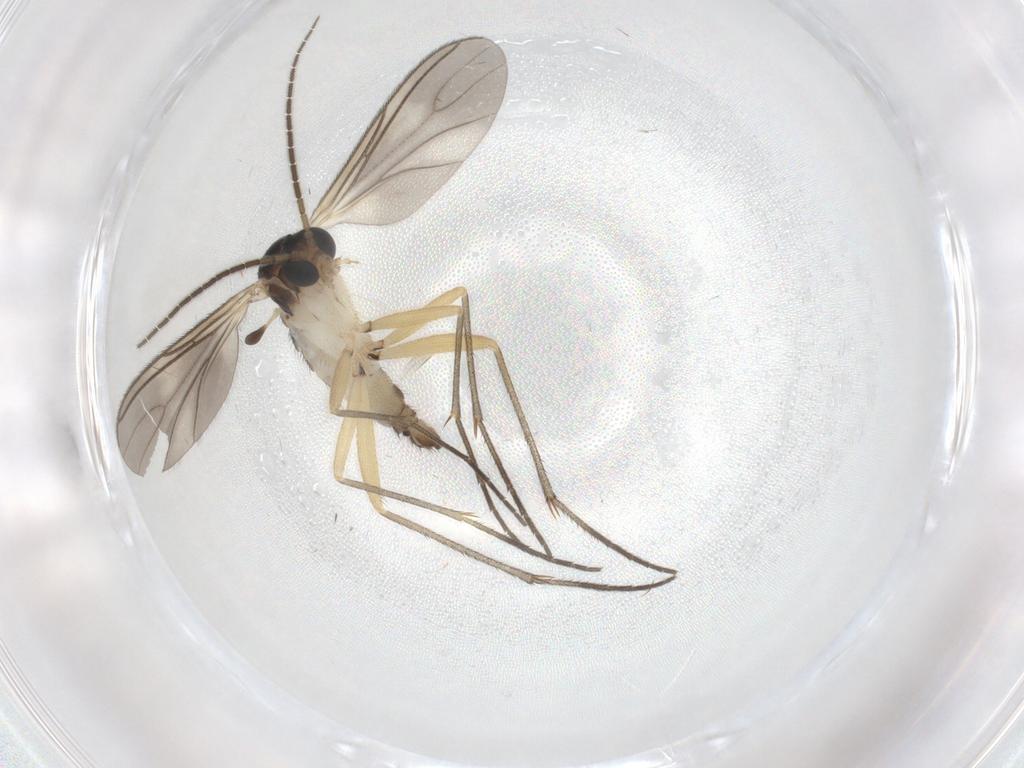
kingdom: Animalia
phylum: Arthropoda
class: Insecta
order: Diptera
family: Sciaridae
